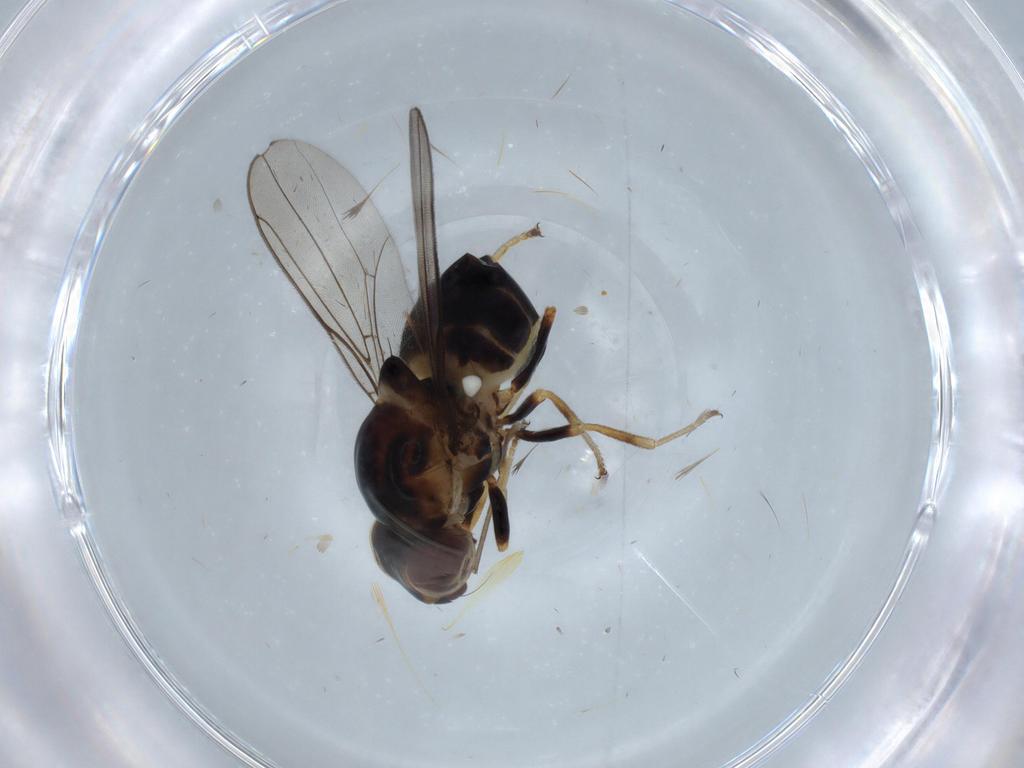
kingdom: Animalia
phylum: Arthropoda
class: Insecta
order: Diptera
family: Chloropidae
